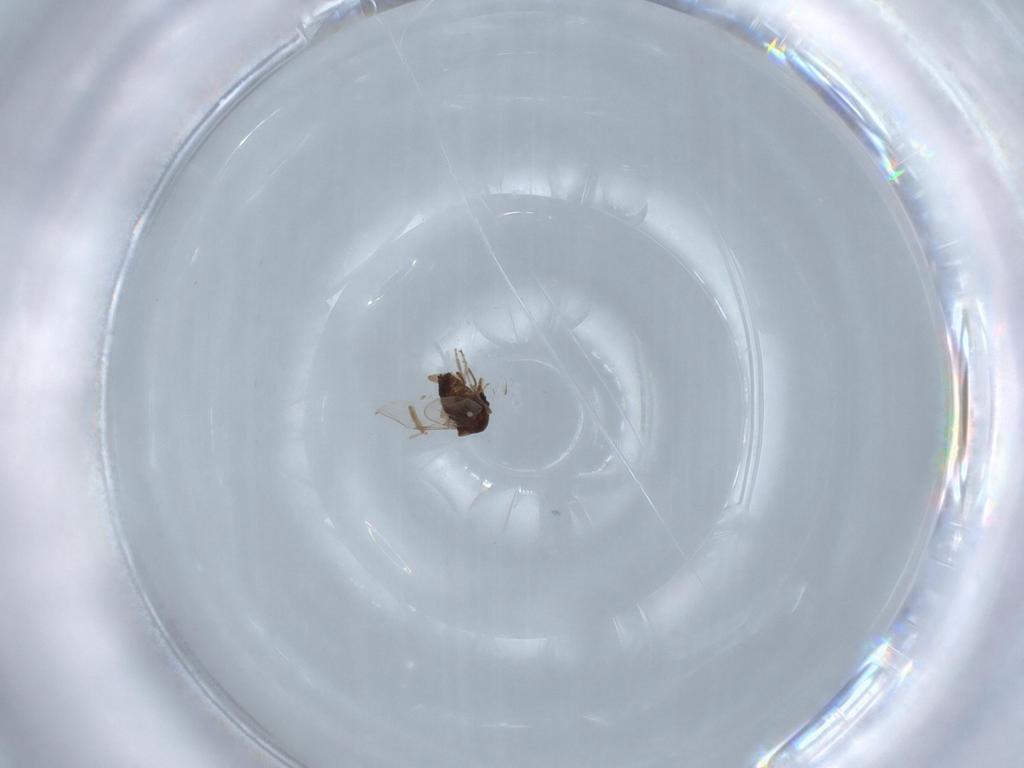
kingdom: Animalia
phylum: Arthropoda
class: Insecta
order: Diptera
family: Ceratopogonidae
